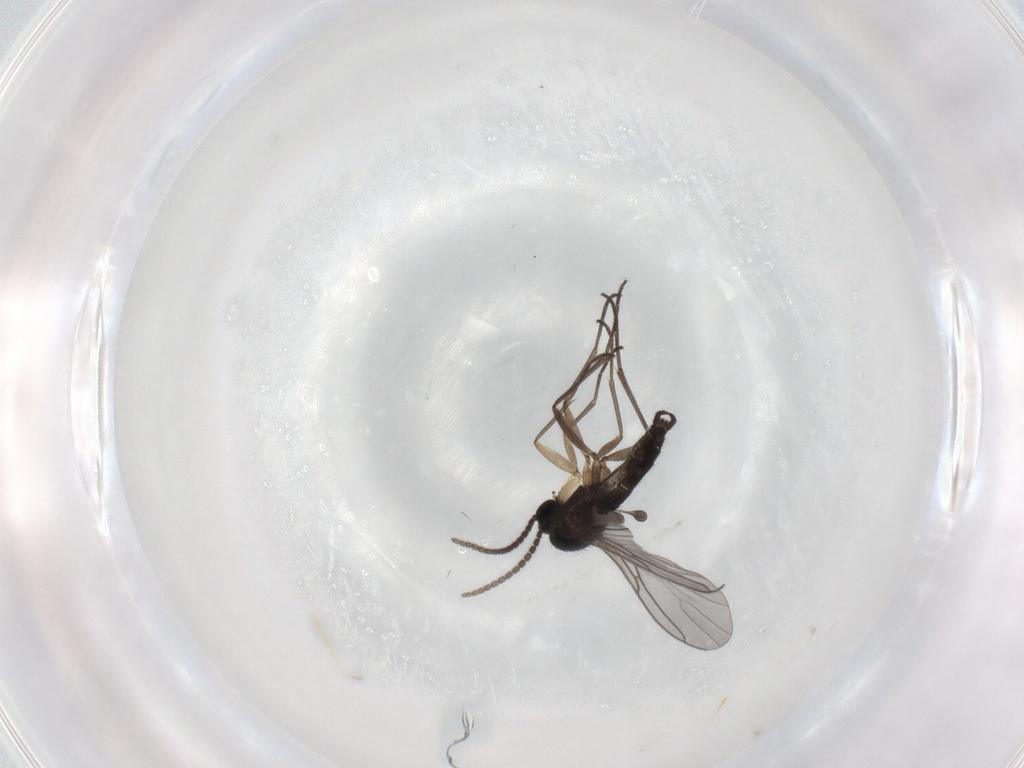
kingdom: Animalia
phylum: Arthropoda
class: Insecta
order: Diptera
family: Sciaridae
